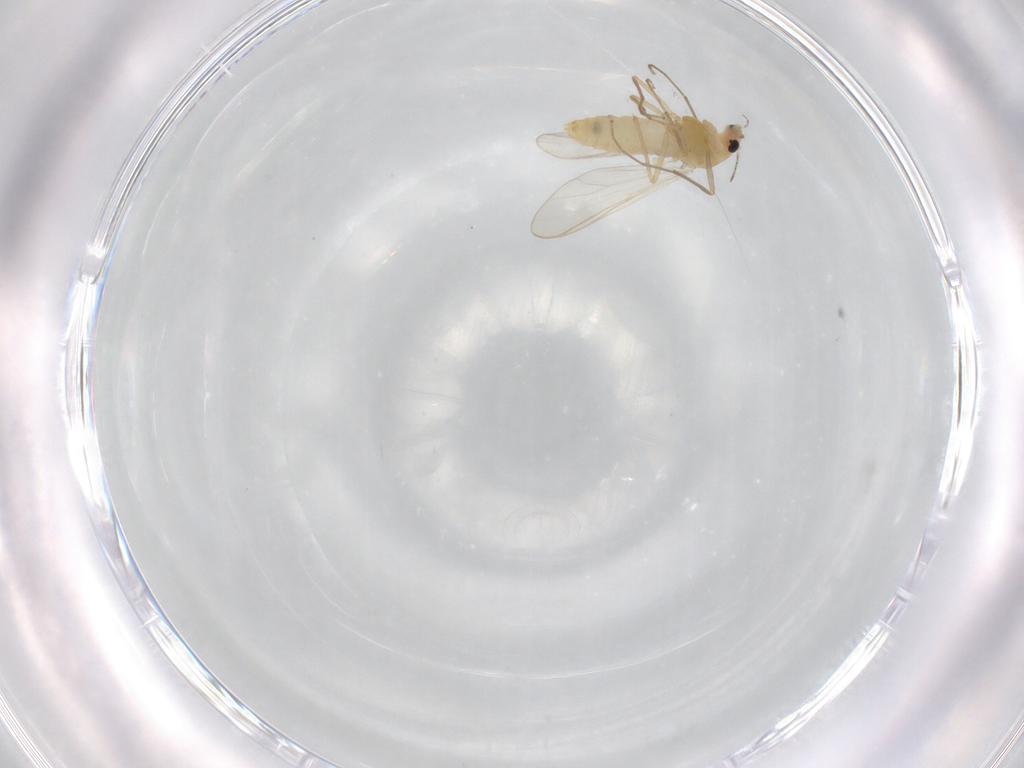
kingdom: Animalia
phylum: Arthropoda
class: Insecta
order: Diptera
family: Chironomidae
